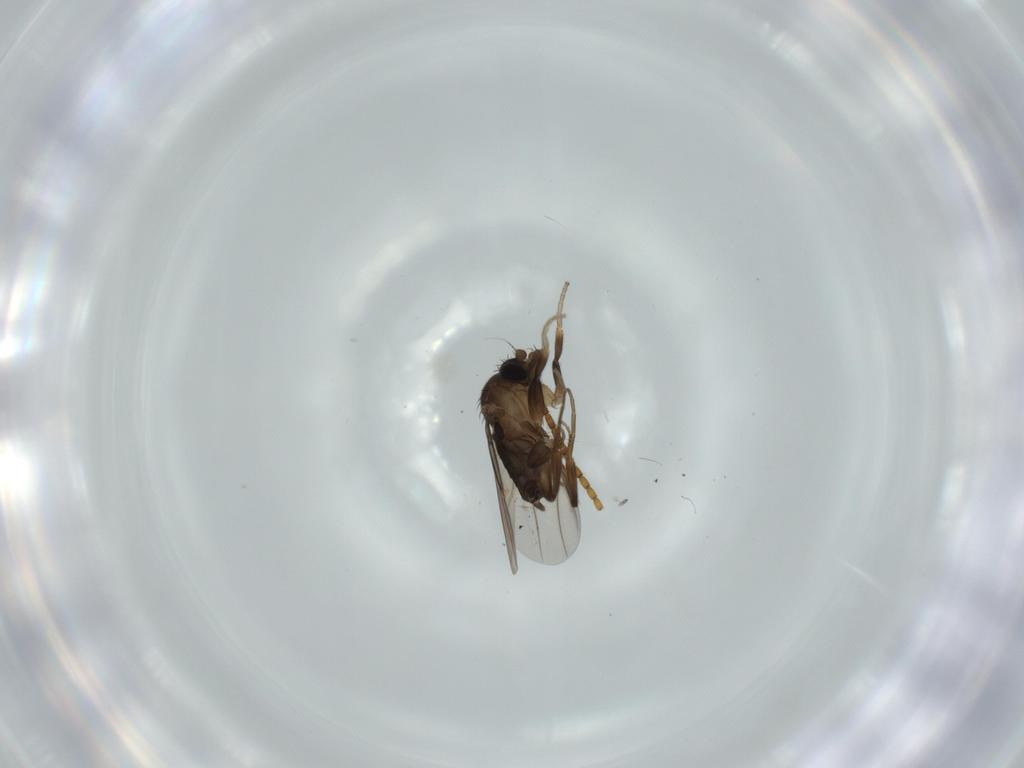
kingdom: Animalia
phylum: Arthropoda
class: Insecta
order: Diptera
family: Phoridae
